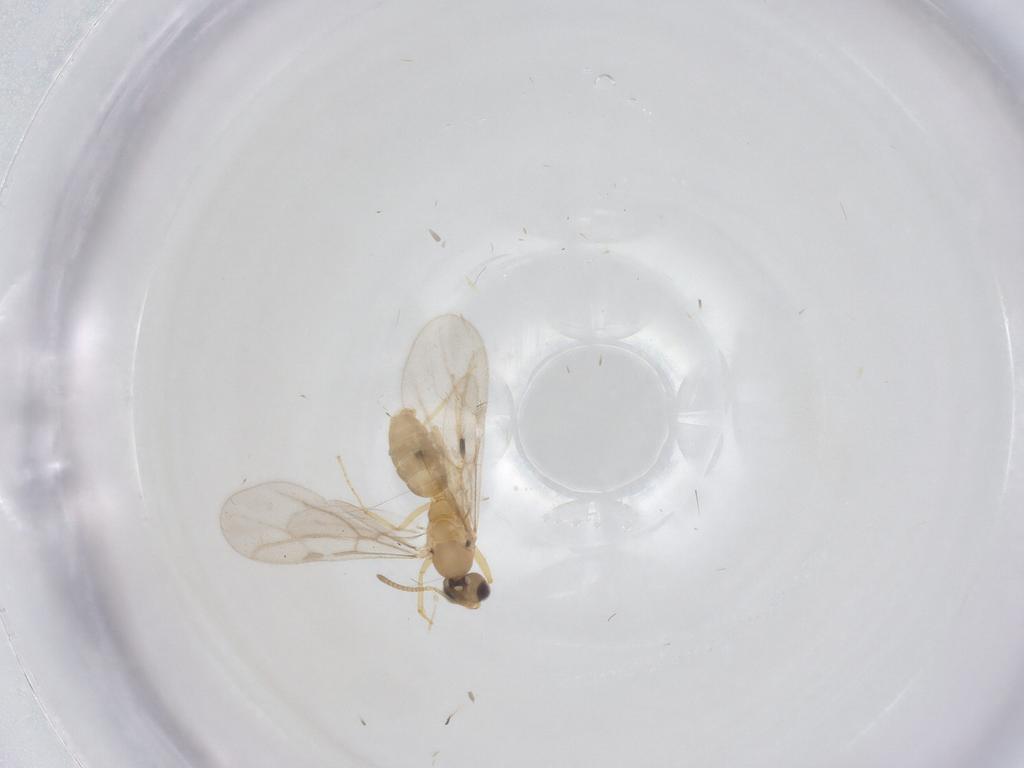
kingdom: Animalia
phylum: Arthropoda
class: Insecta
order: Hymenoptera
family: Formicidae
